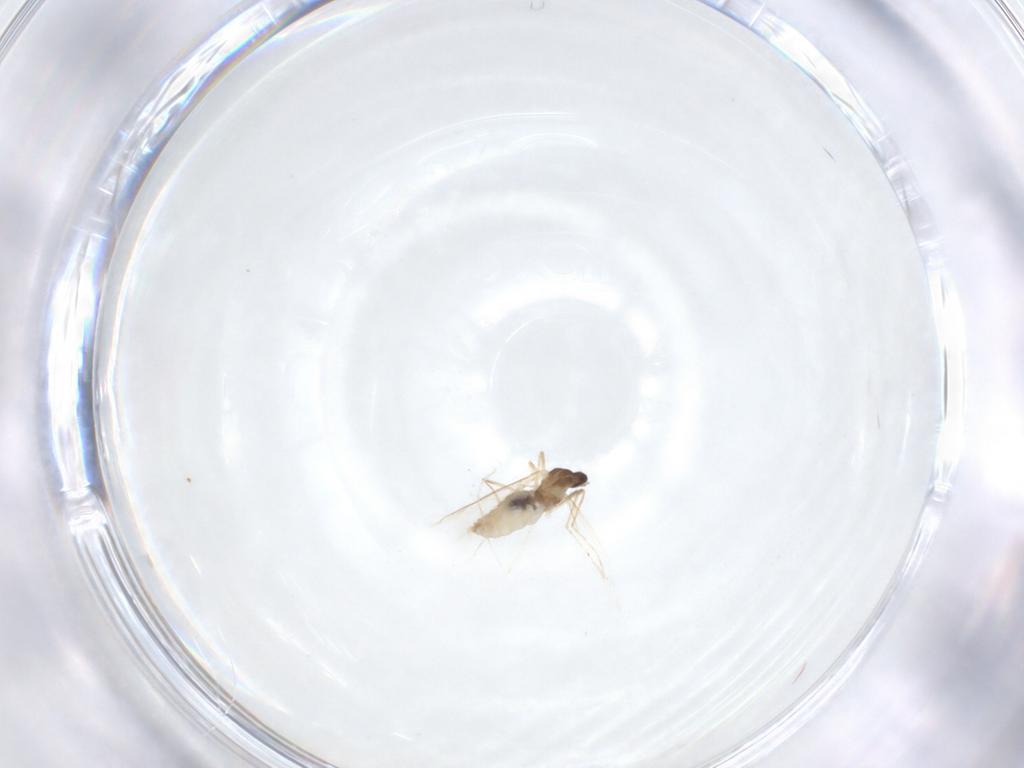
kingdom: Animalia
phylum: Arthropoda
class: Insecta
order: Diptera
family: Cecidomyiidae
